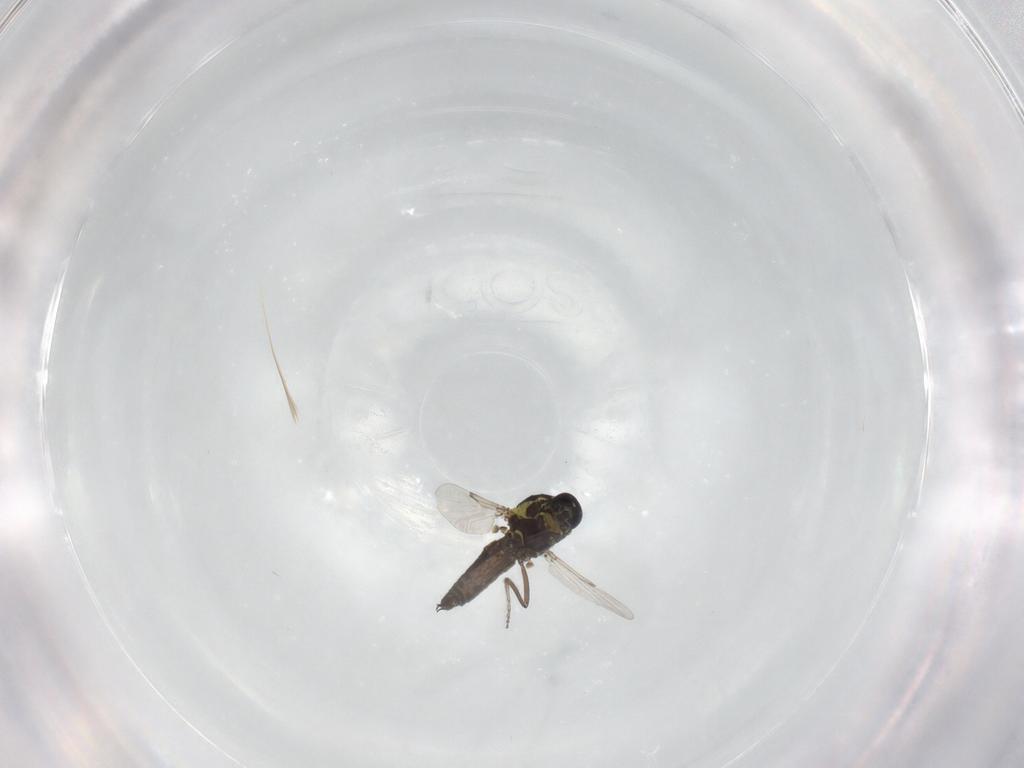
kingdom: Animalia
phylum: Arthropoda
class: Insecta
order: Diptera
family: Ceratopogonidae
